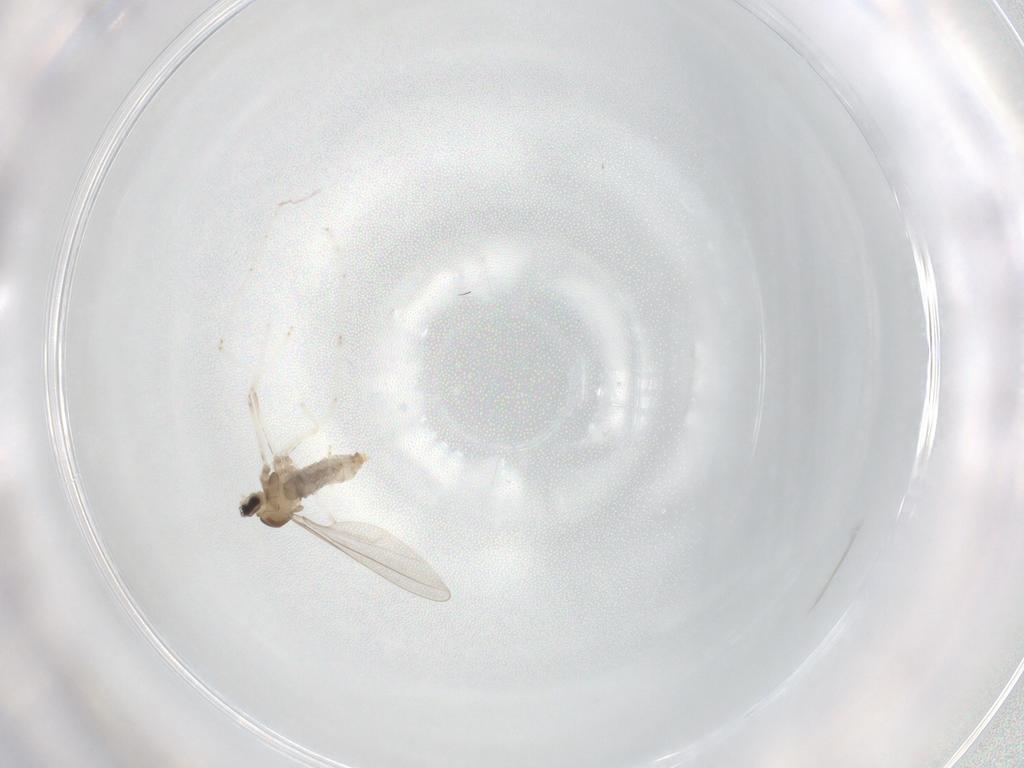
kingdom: Animalia
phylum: Arthropoda
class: Insecta
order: Diptera
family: Cecidomyiidae
